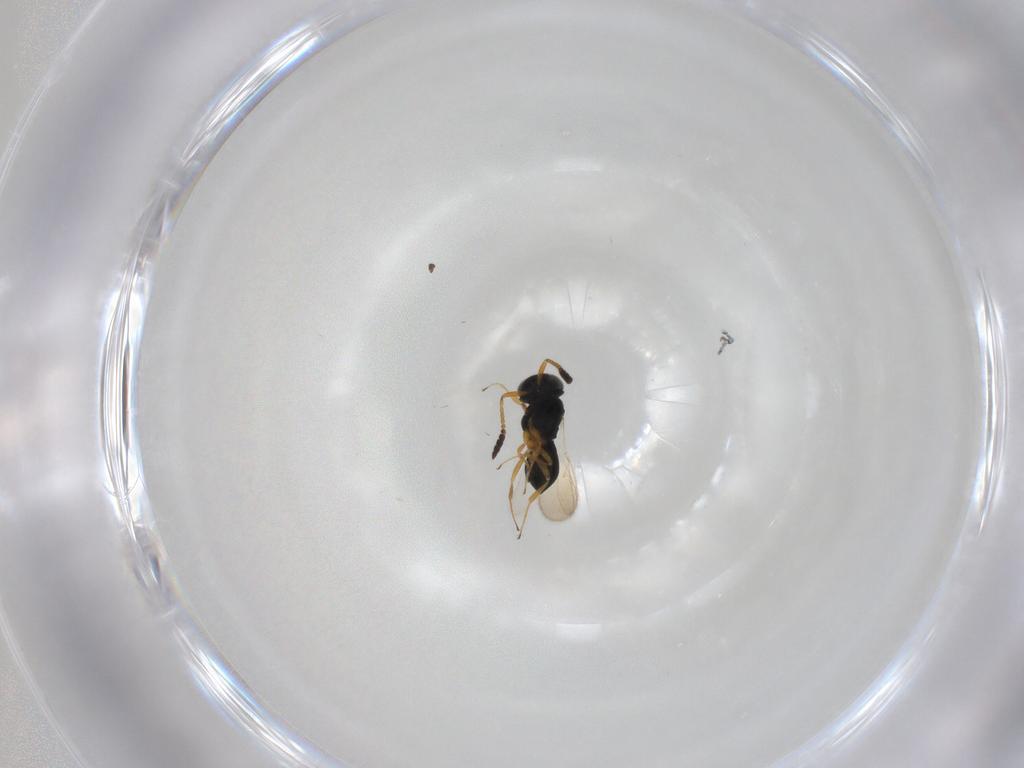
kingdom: Animalia
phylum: Arthropoda
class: Insecta
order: Hymenoptera
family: Scelionidae
